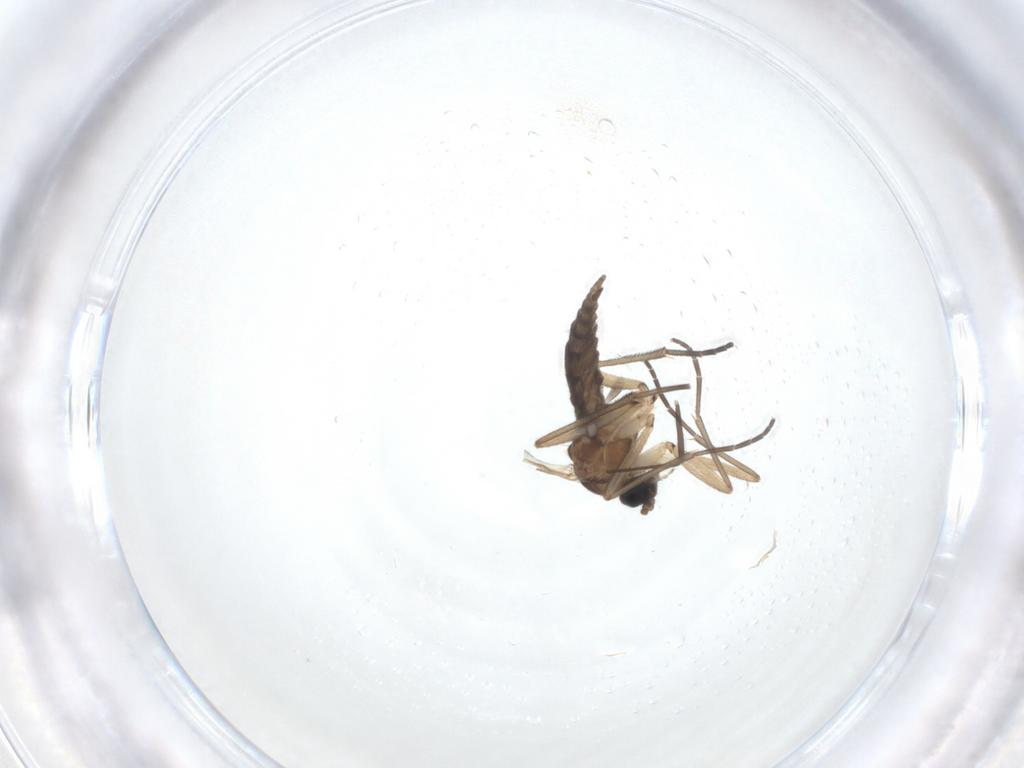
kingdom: Animalia
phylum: Arthropoda
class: Insecta
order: Diptera
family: Sciaridae
